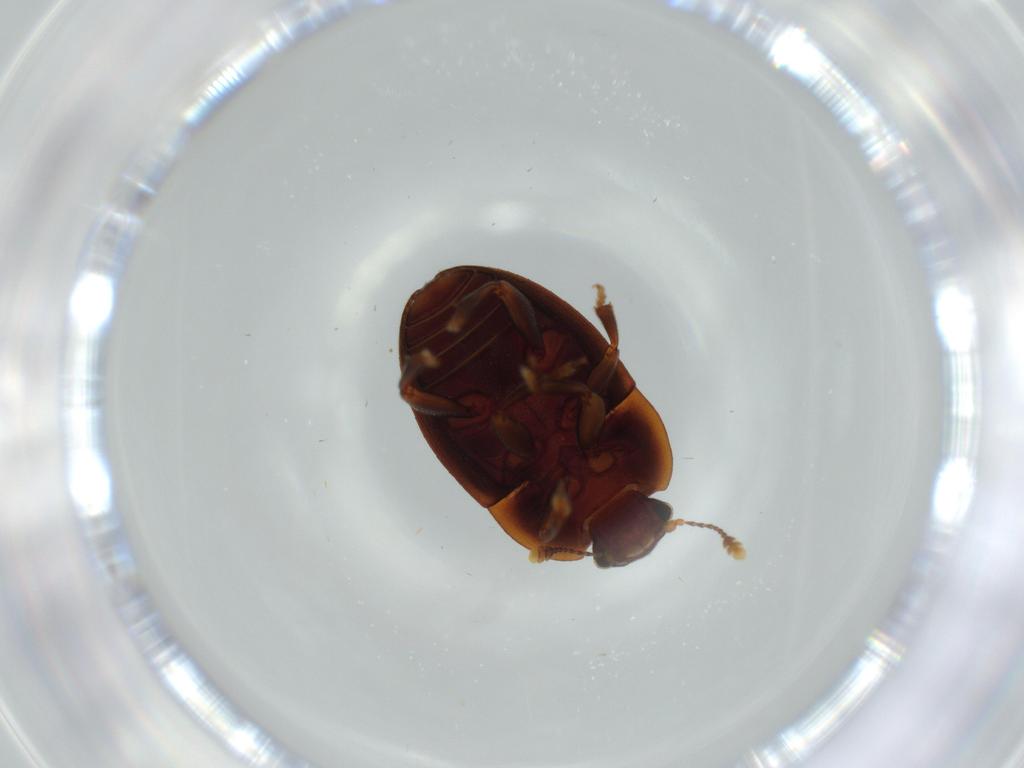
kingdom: Animalia
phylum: Arthropoda
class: Insecta
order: Coleoptera
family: Nitidulidae
